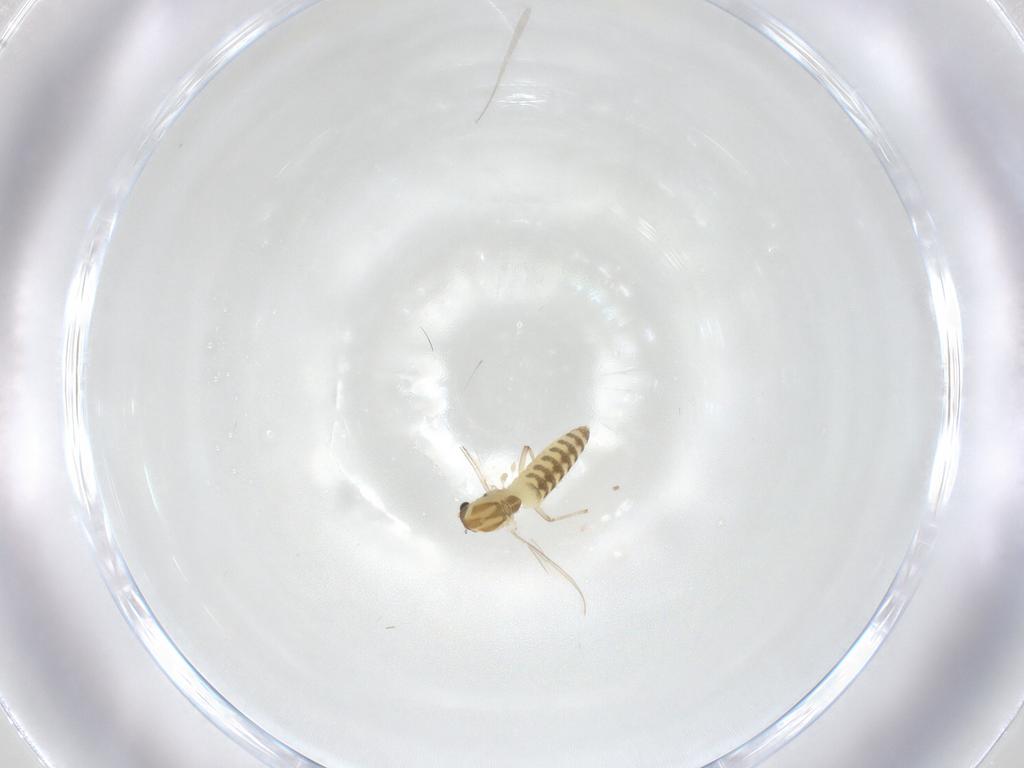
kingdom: Animalia
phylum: Arthropoda
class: Insecta
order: Diptera
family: Chironomidae
